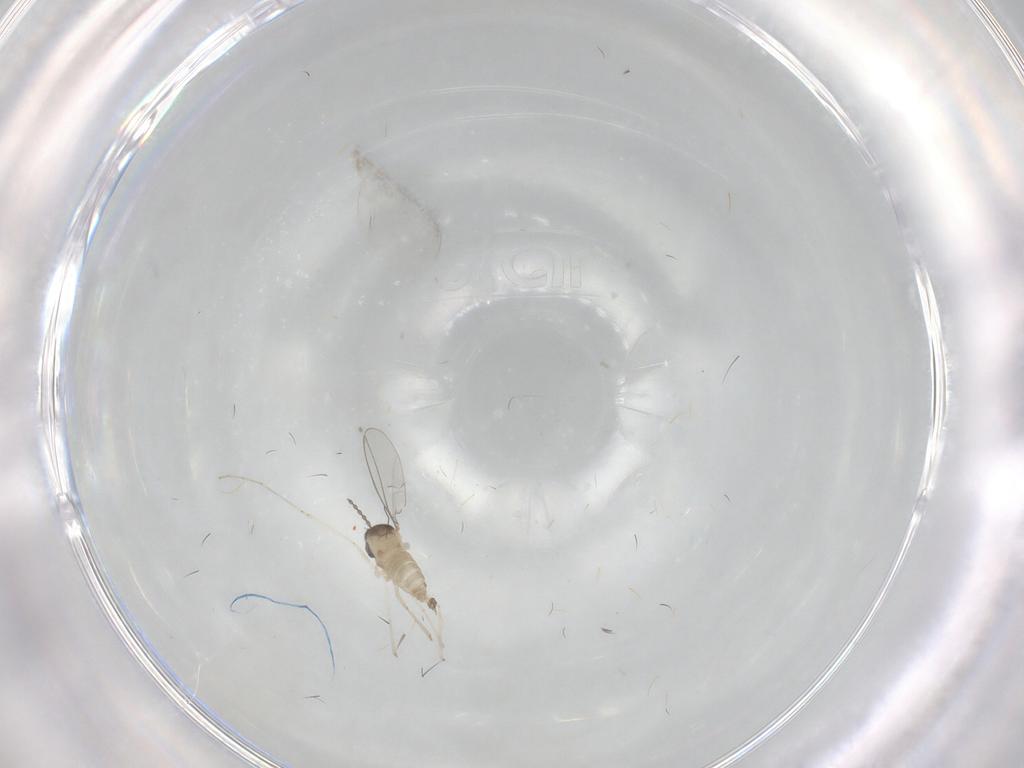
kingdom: Animalia
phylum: Arthropoda
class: Insecta
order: Diptera
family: Cecidomyiidae
